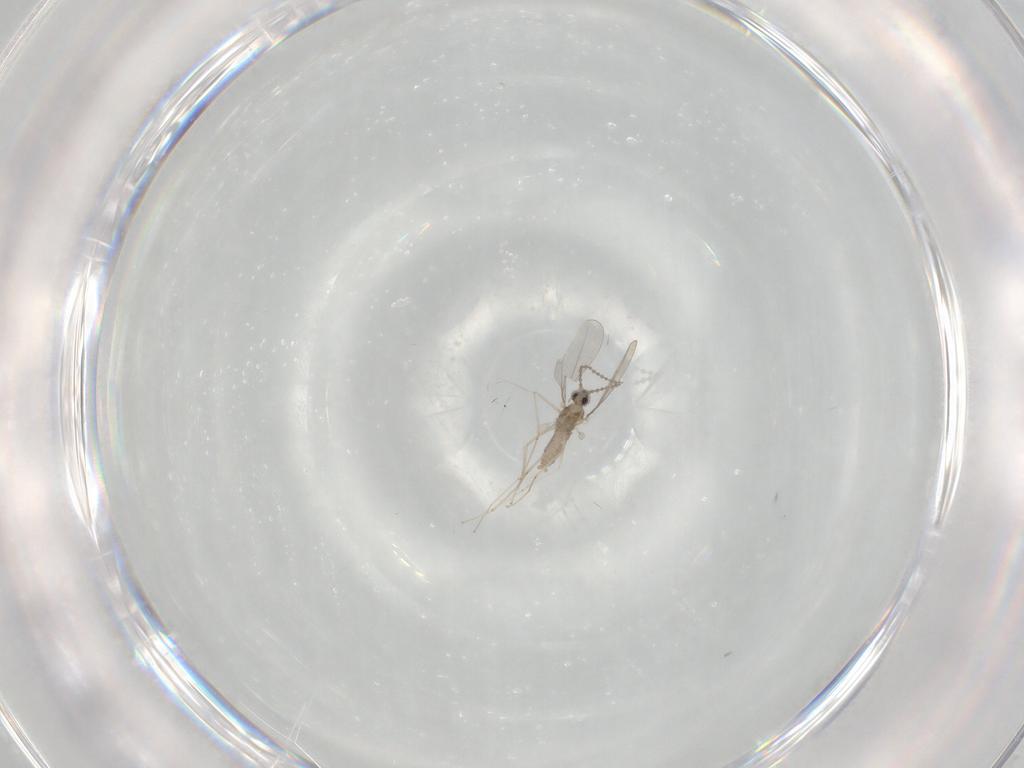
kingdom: Animalia
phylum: Arthropoda
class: Insecta
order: Diptera
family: Cecidomyiidae
